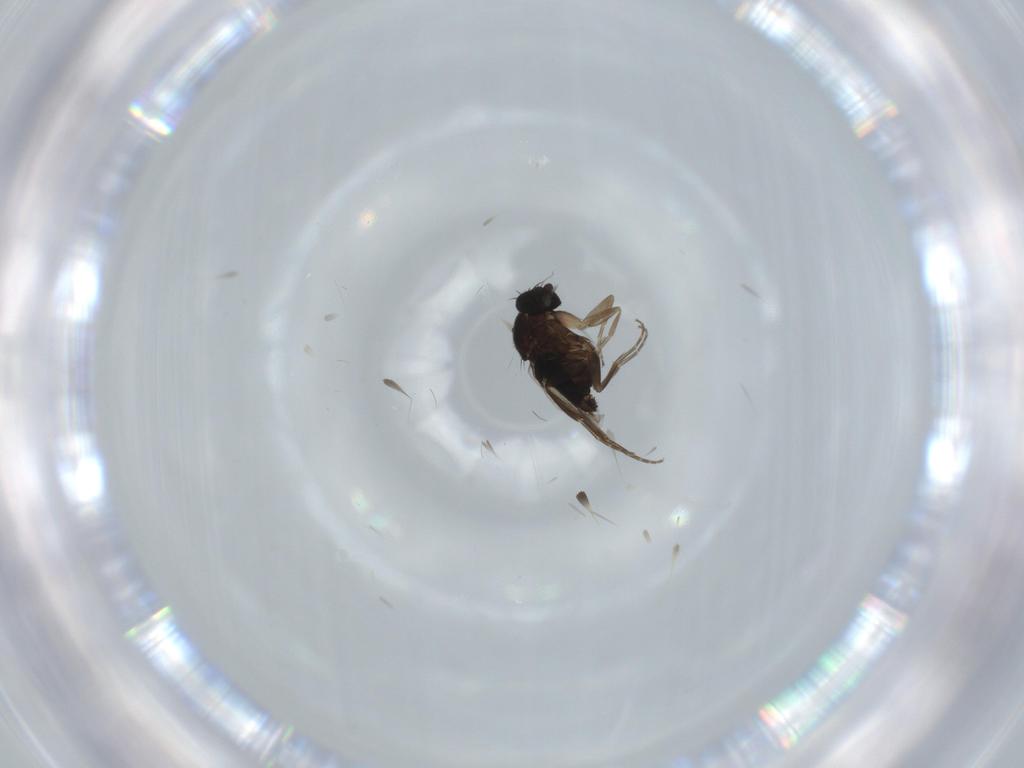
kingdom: Animalia
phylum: Arthropoda
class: Insecta
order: Diptera
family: Phoridae
